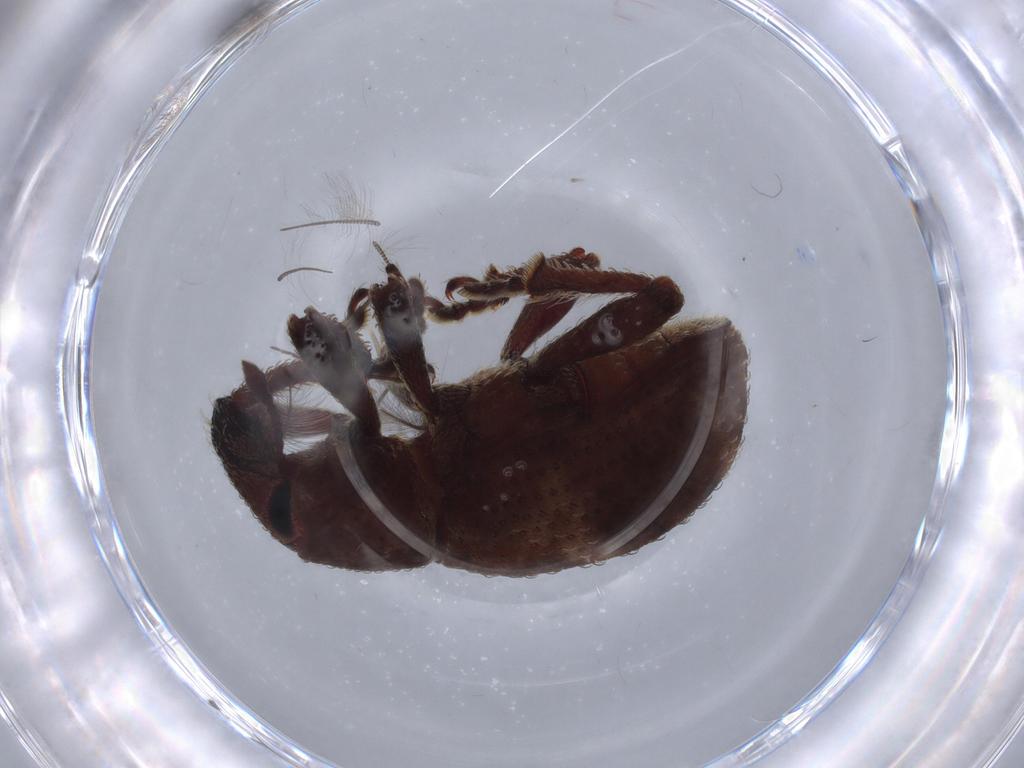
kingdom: Animalia
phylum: Arthropoda
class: Insecta
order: Coleoptera
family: Curculionidae
